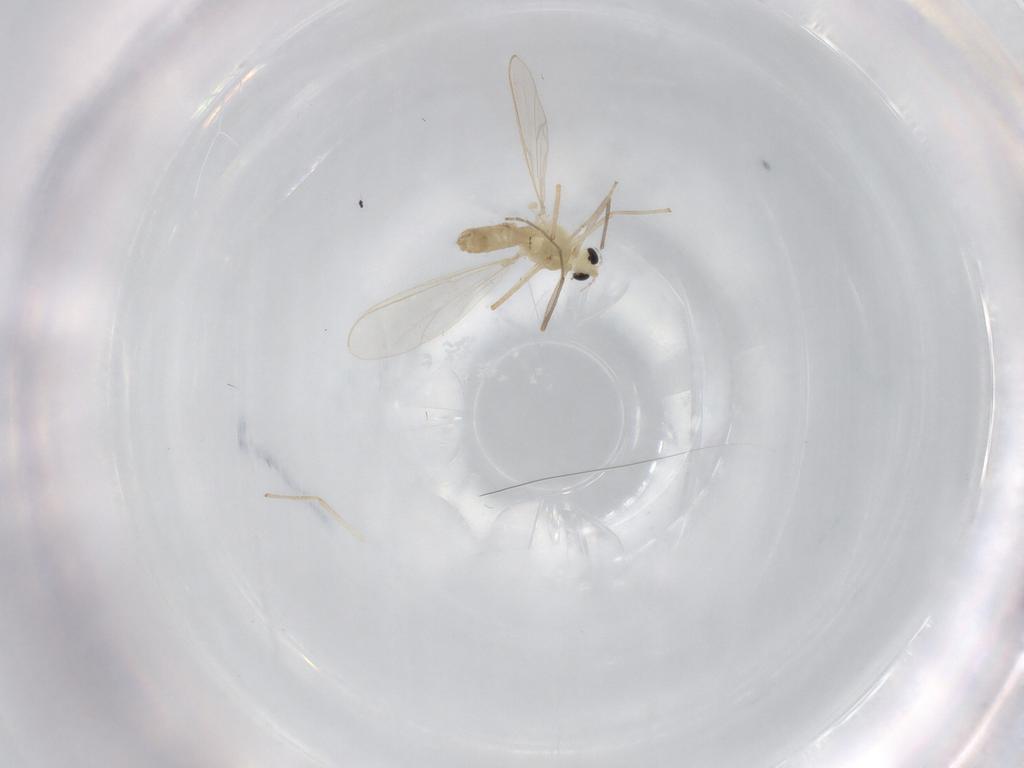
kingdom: Animalia
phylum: Arthropoda
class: Insecta
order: Diptera
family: Chironomidae
